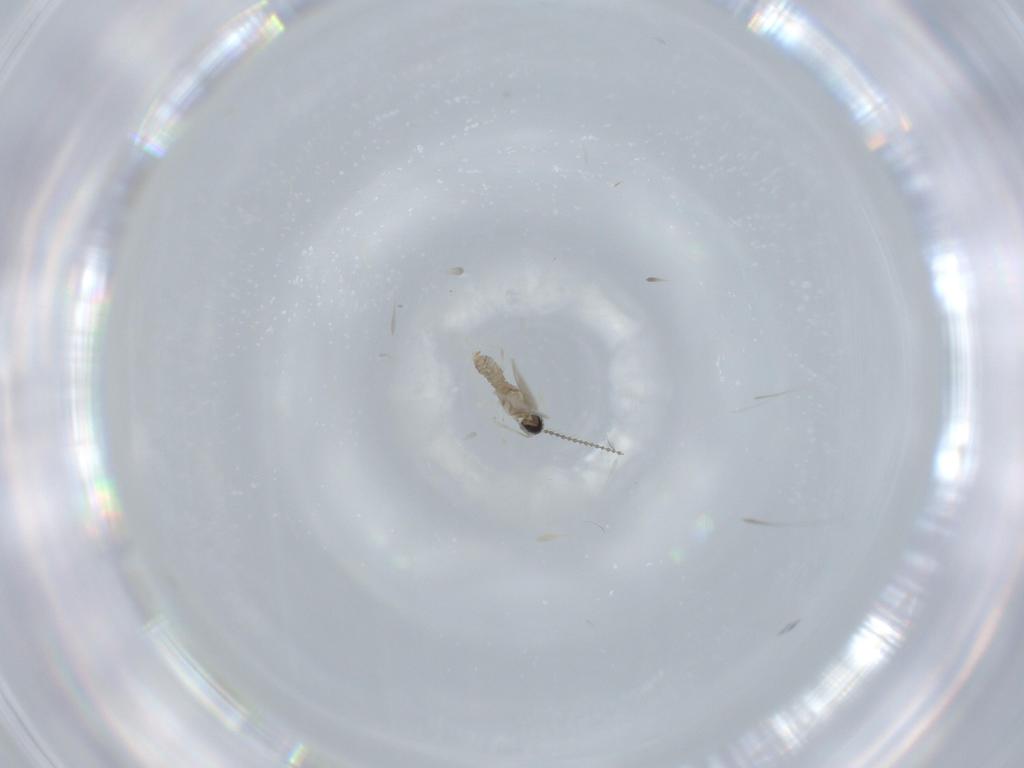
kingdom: Animalia
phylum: Arthropoda
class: Insecta
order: Diptera
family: Cecidomyiidae
